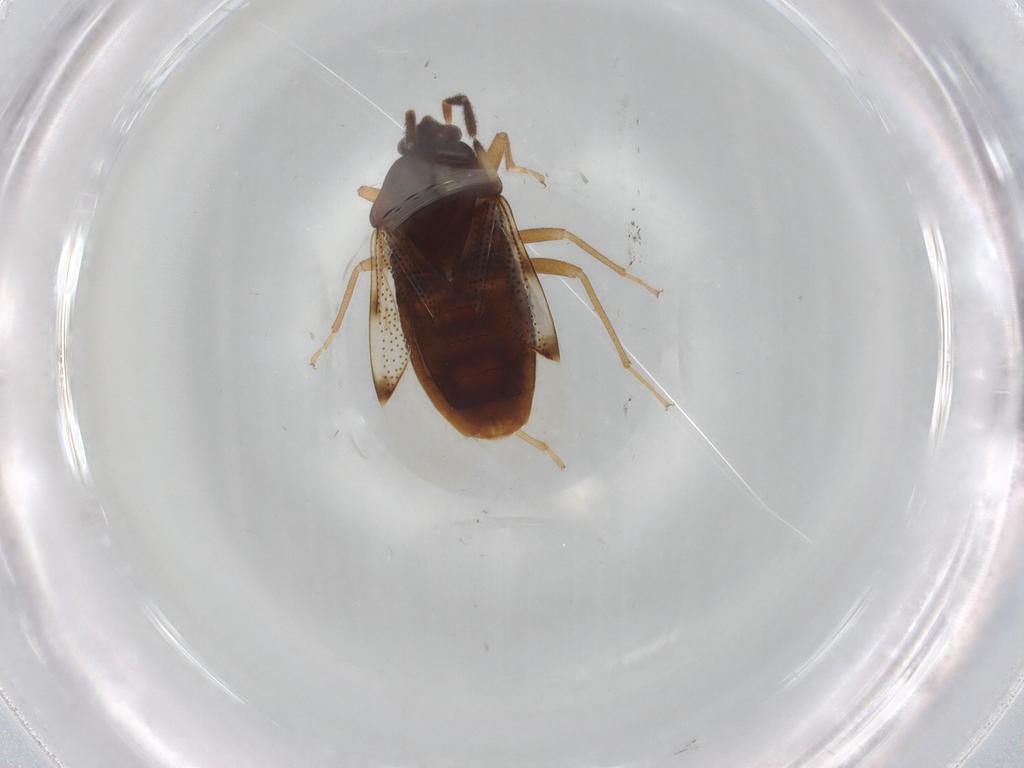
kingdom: Animalia
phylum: Arthropoda
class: Insecta
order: Hemiptera
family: Rhyparochromidae
